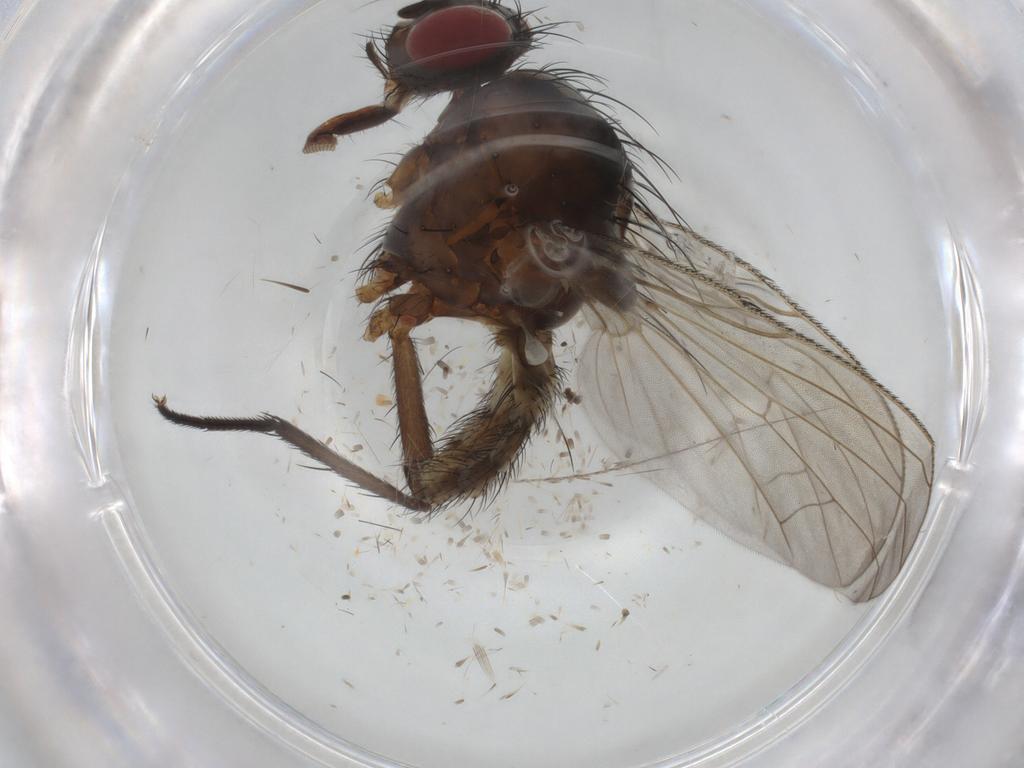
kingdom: Animalia
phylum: Arthropoda
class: Insecta
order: Diptera
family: Anthomyiidae
